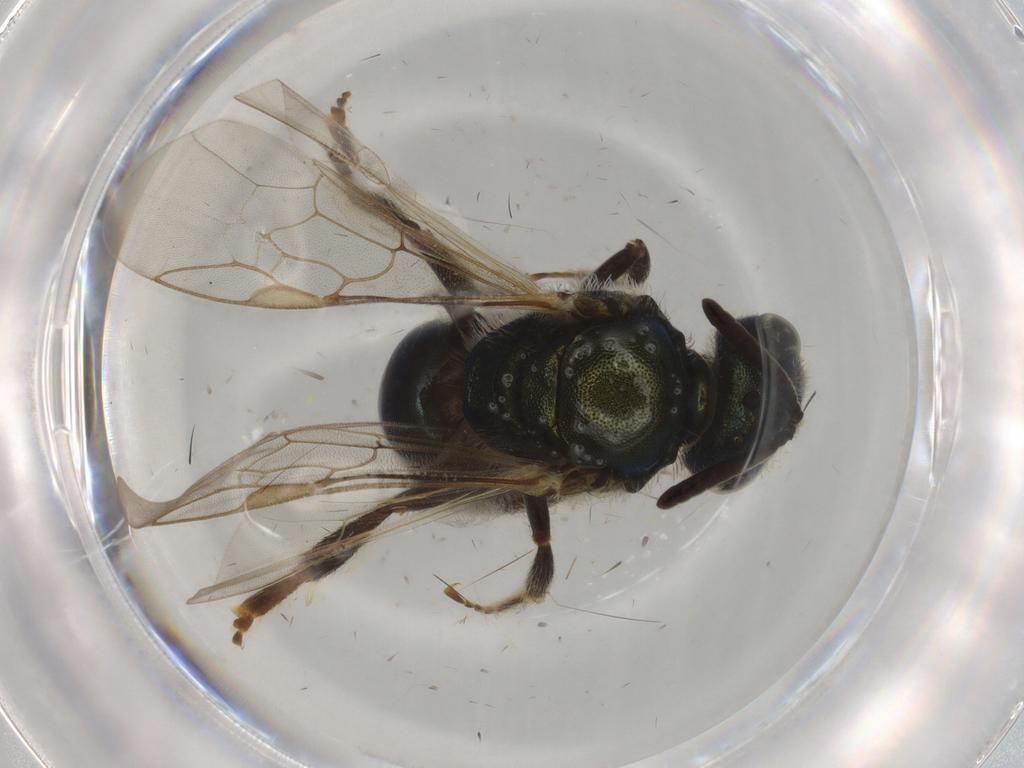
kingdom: Animalia
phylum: Arthropoda
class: Insecta
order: Hymenoptera
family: Halictidae
